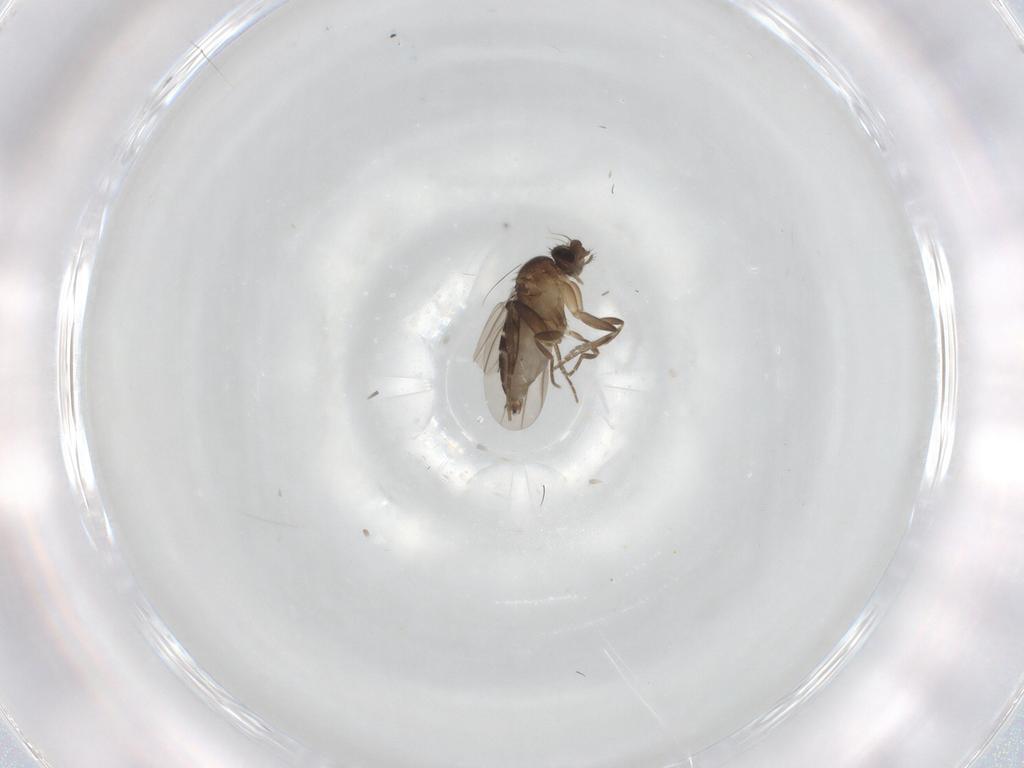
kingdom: Animalia
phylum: Arthropoda
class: Insecta
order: Diptera
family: Phoridae
